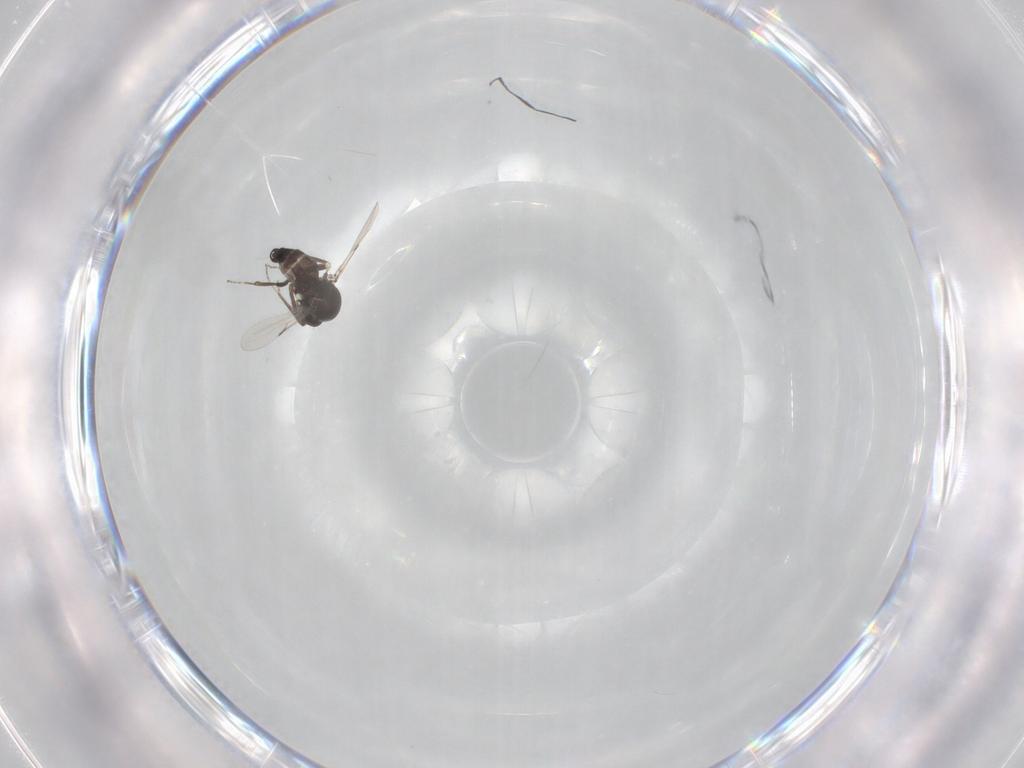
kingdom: Animalia
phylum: Arthropoda
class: Insecta
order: Diptera
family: Ceratopogonidae
